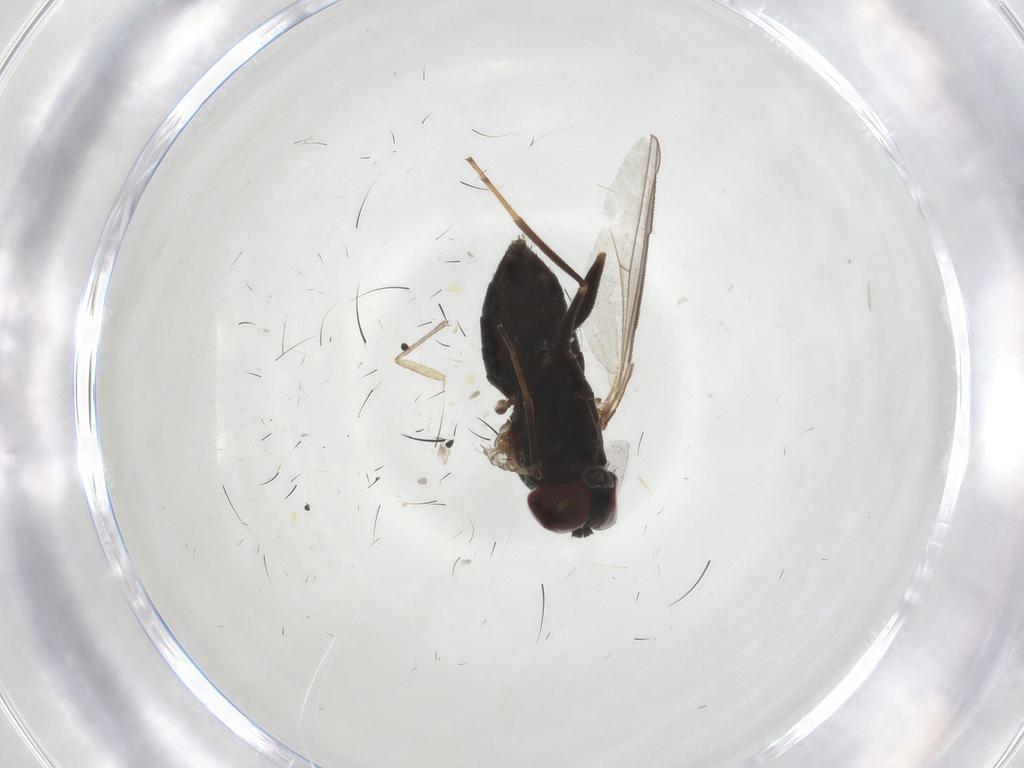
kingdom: Animalia
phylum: Arthropoda
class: Insecta
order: Diptera
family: Dolichopodidae
